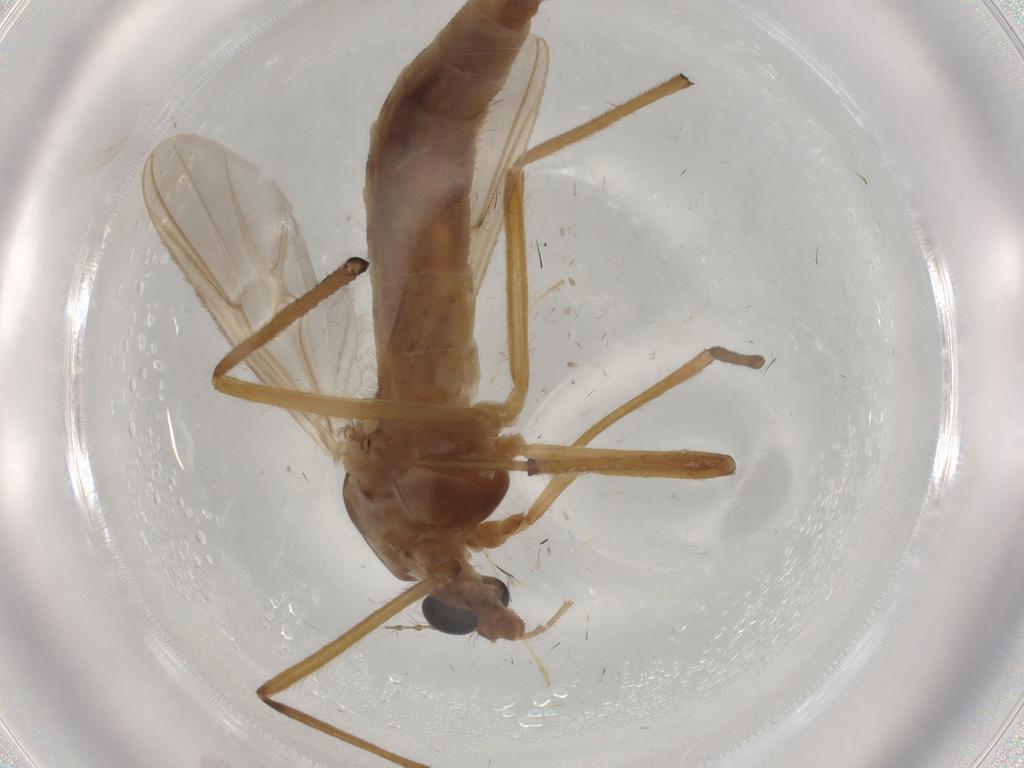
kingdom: Animalia
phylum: Arthropoda
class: Insecta
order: Diptera
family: Chironomidae
